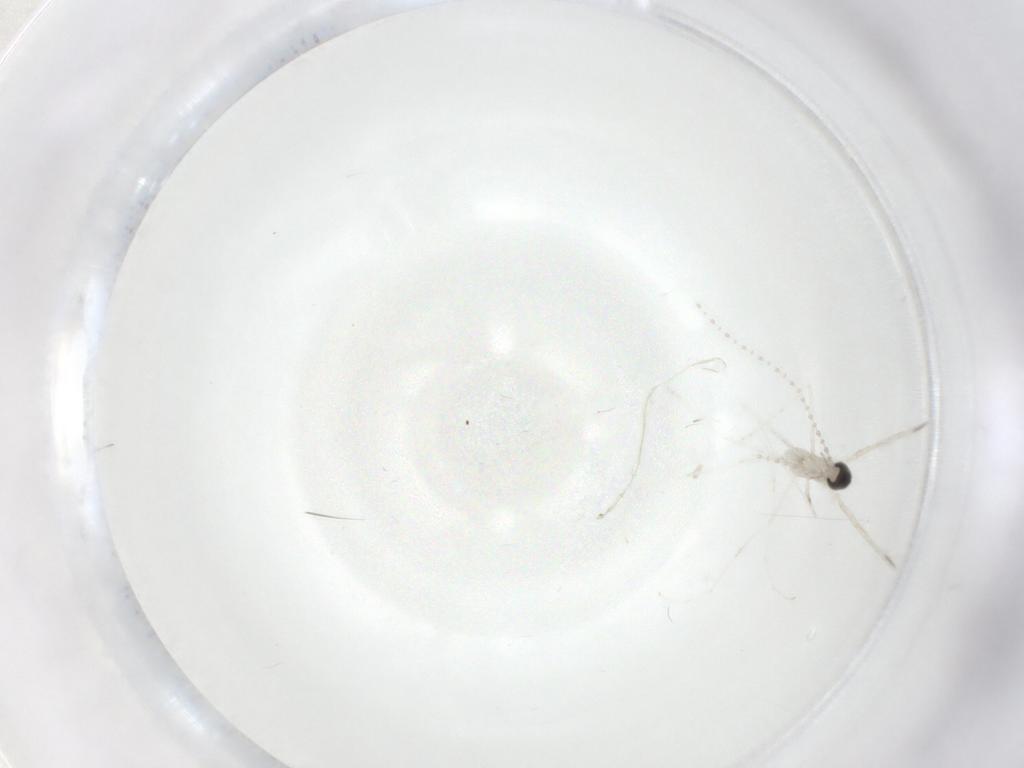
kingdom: Animalia
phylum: Arthropoda
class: Insecta
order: Diptera
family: Cecidomyiidae
